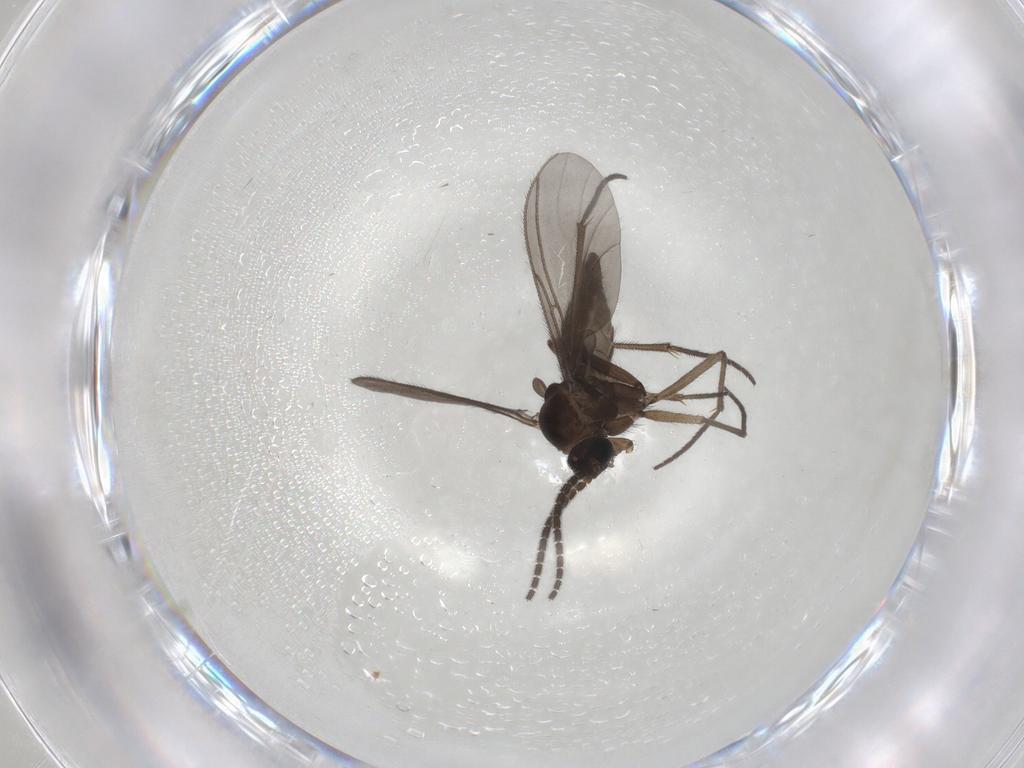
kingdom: Animalia
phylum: Arthropoda
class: Insecta
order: Diptera
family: Sciaridae
